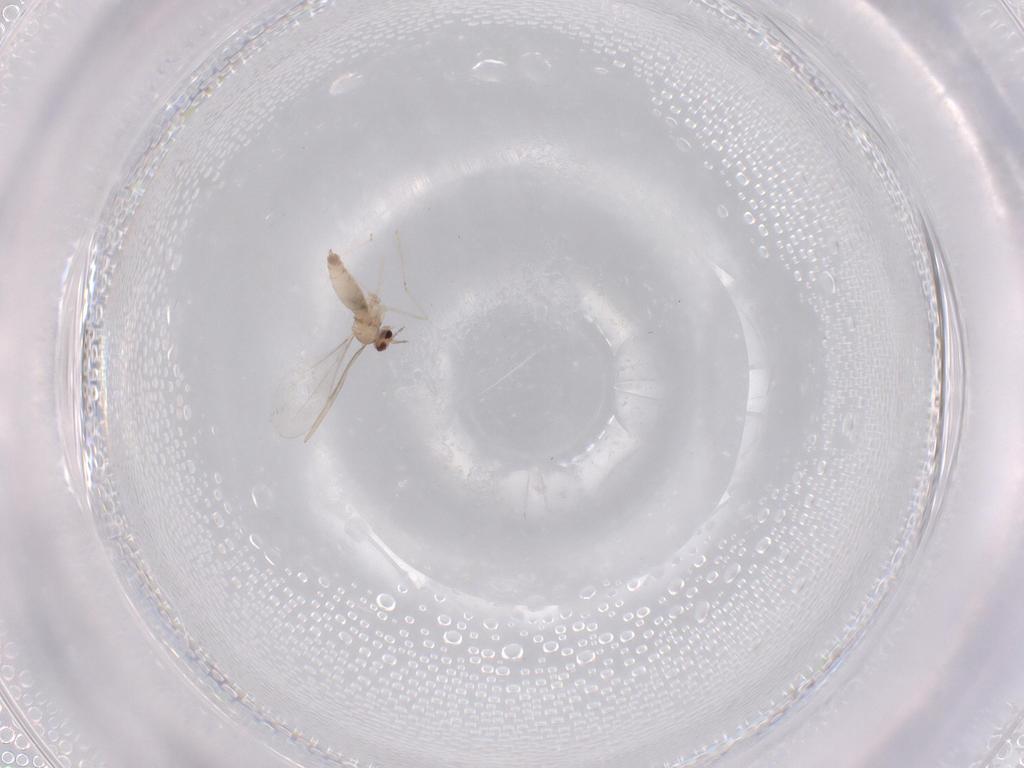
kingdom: Animalia
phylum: Arthropoda
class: Insecta
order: Diptera
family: Cecidomyiidae
